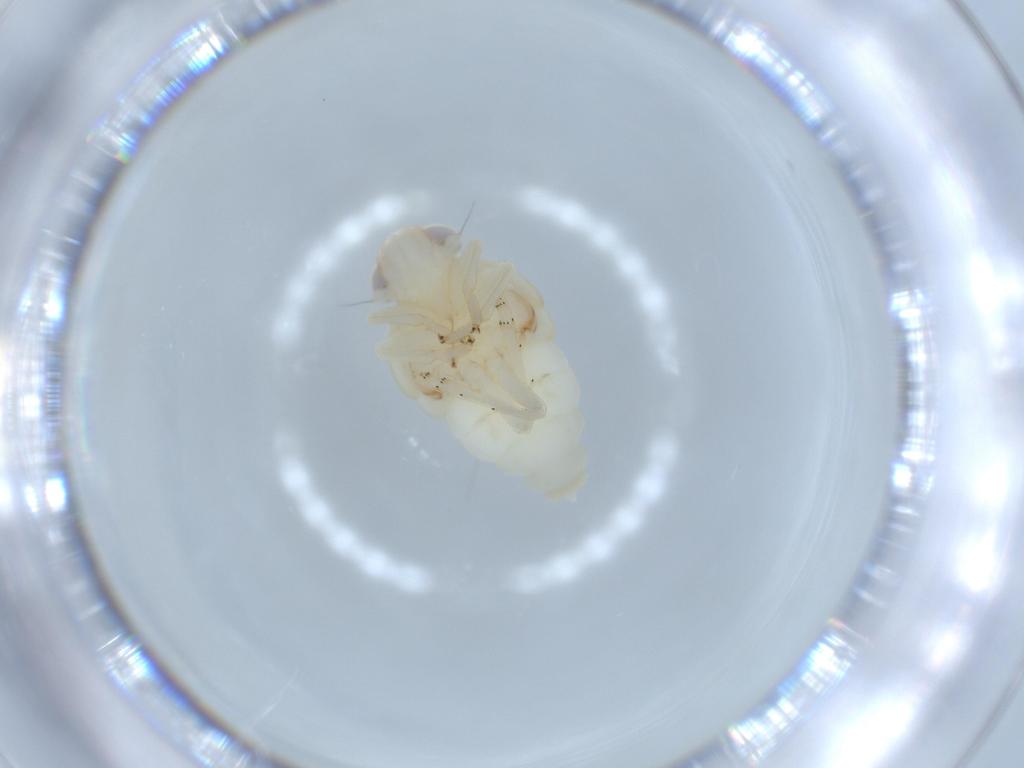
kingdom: Animalia
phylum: Arthropoda
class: Insecta
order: Hemiptera
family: Nogodinidae
